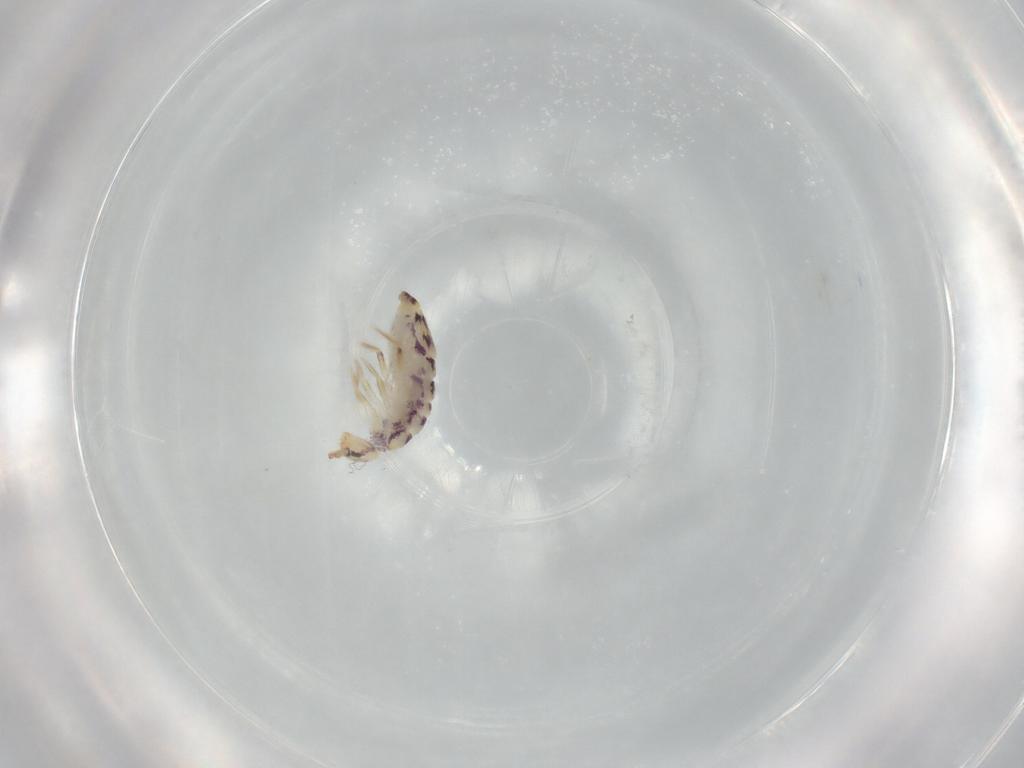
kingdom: Animalia
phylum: Arthropoda
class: Collembola
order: Entomobryomorpha
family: Entomobryidae
